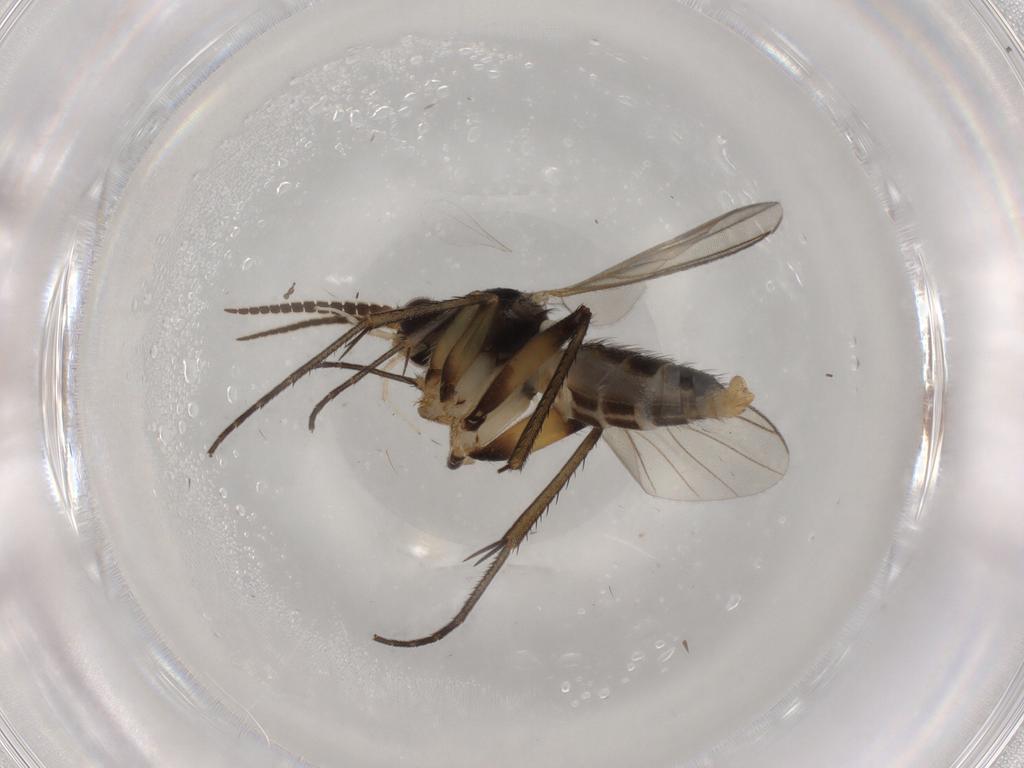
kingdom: Animalia
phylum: Arthropoda
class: Insecta
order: Diptera
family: Mycetophilidae
